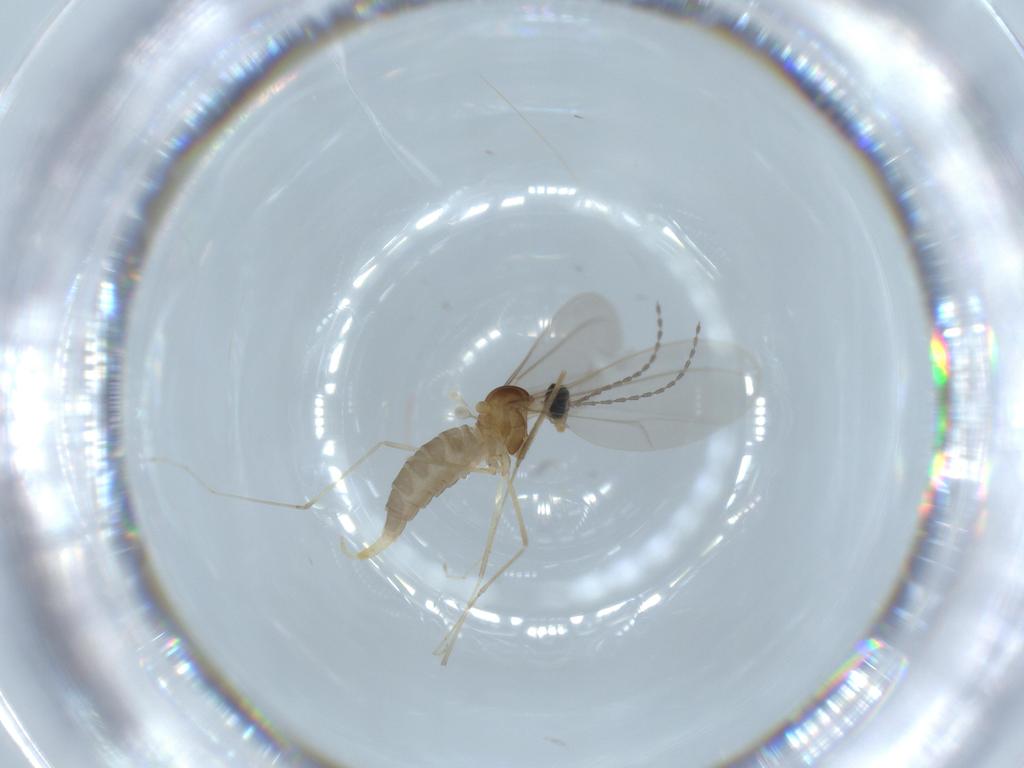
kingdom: Animalia
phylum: Arthropoda
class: Insecta
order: Diptera
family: Cecidomyiidae
